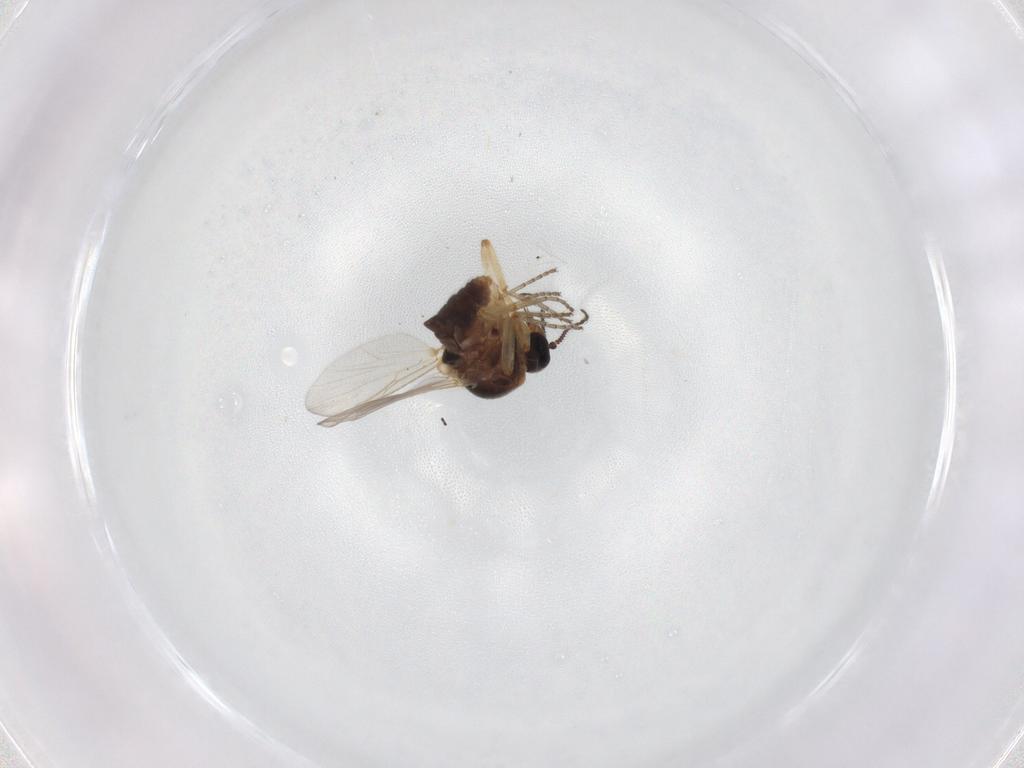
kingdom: Animalia
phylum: Arthropoda
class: Insecta
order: Diptera
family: Ceratopogonidae
